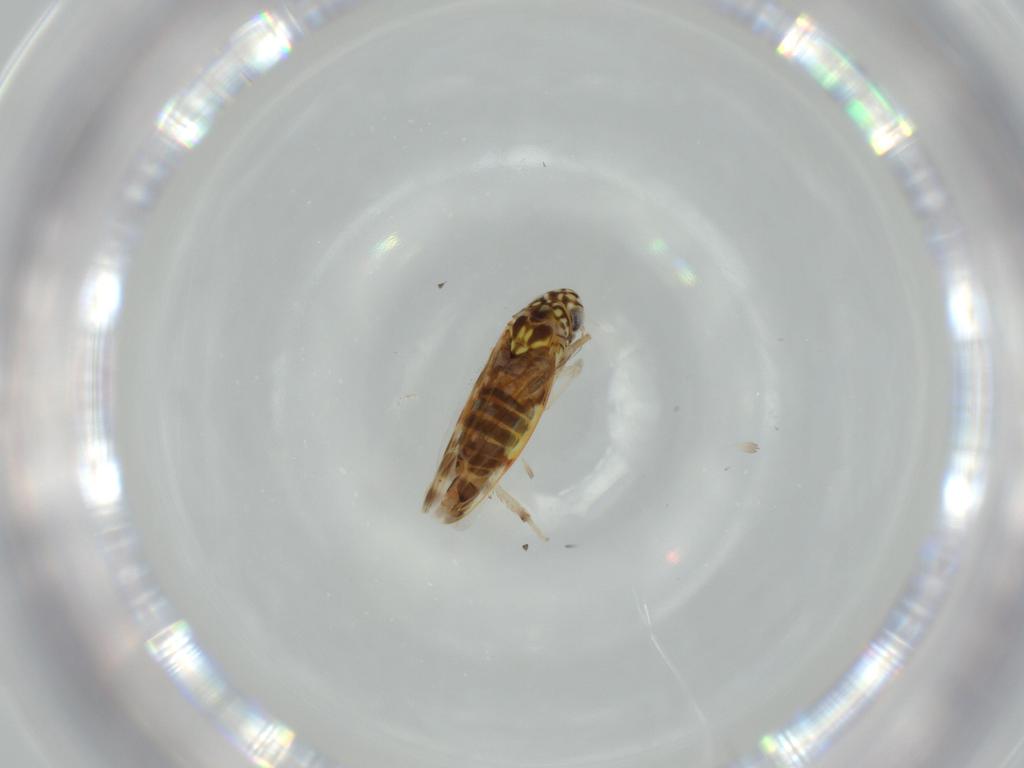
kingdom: Animalia
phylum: Arthropoda
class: Insecta
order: Hemiptera
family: Cicadellidae
